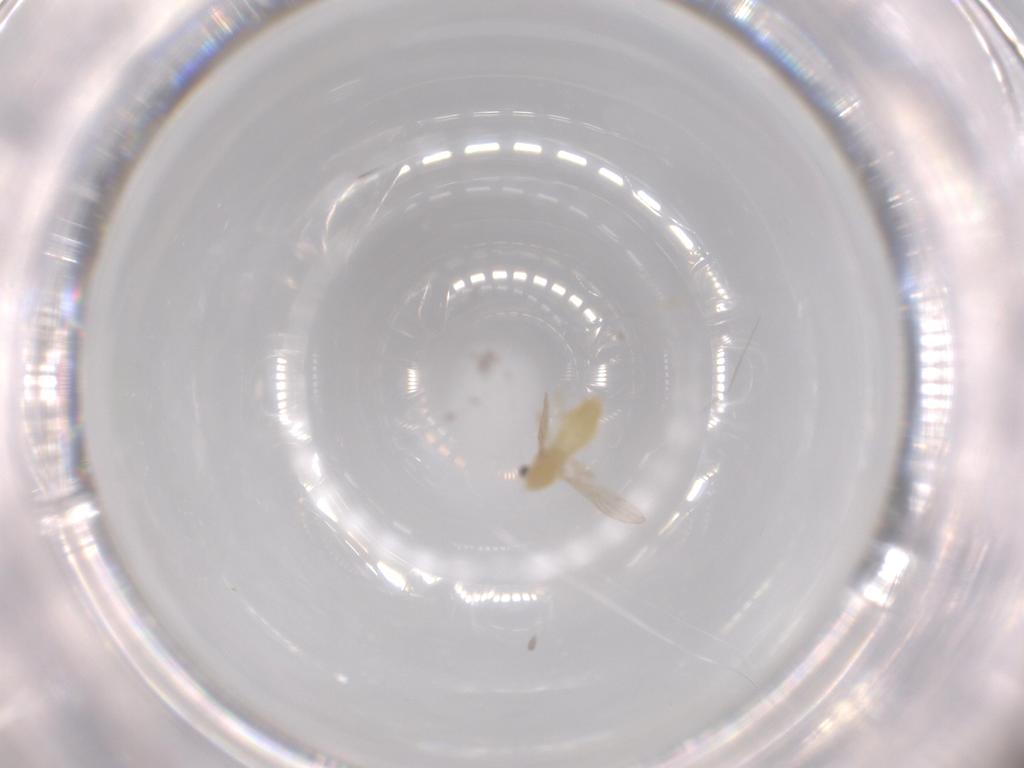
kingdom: Animalia
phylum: Arthropoda
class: Insecta
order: Diptera
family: Chironomidae
